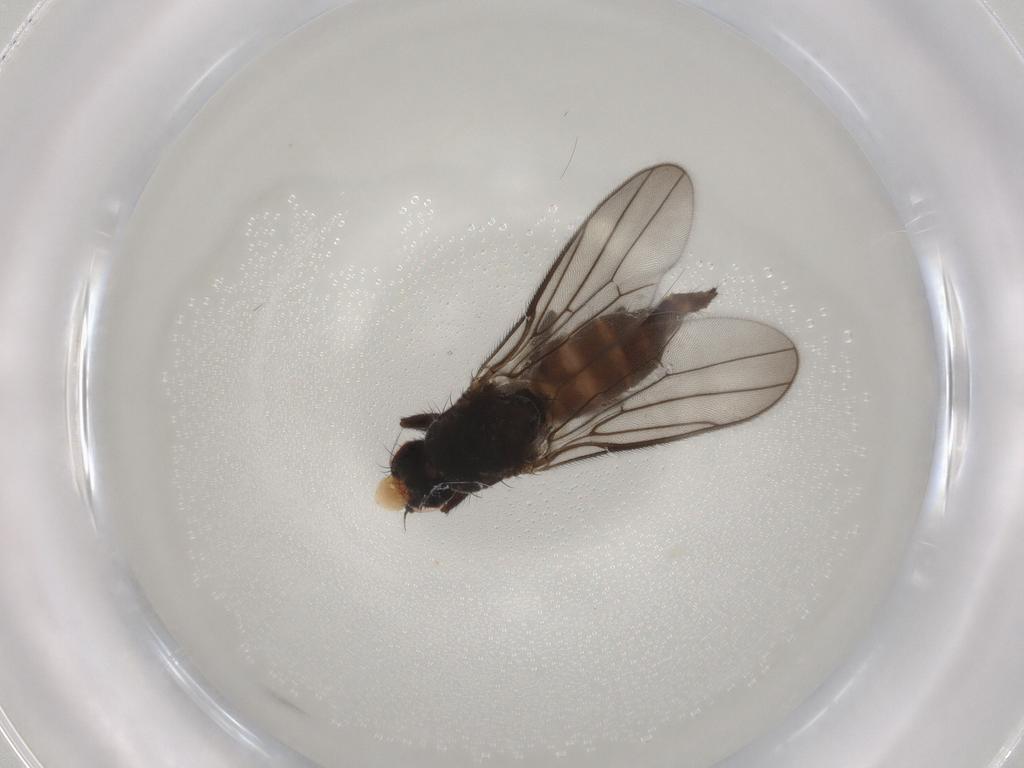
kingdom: Animalia
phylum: Arthropoda
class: Insecta
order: Diptera
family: Chloropidae
